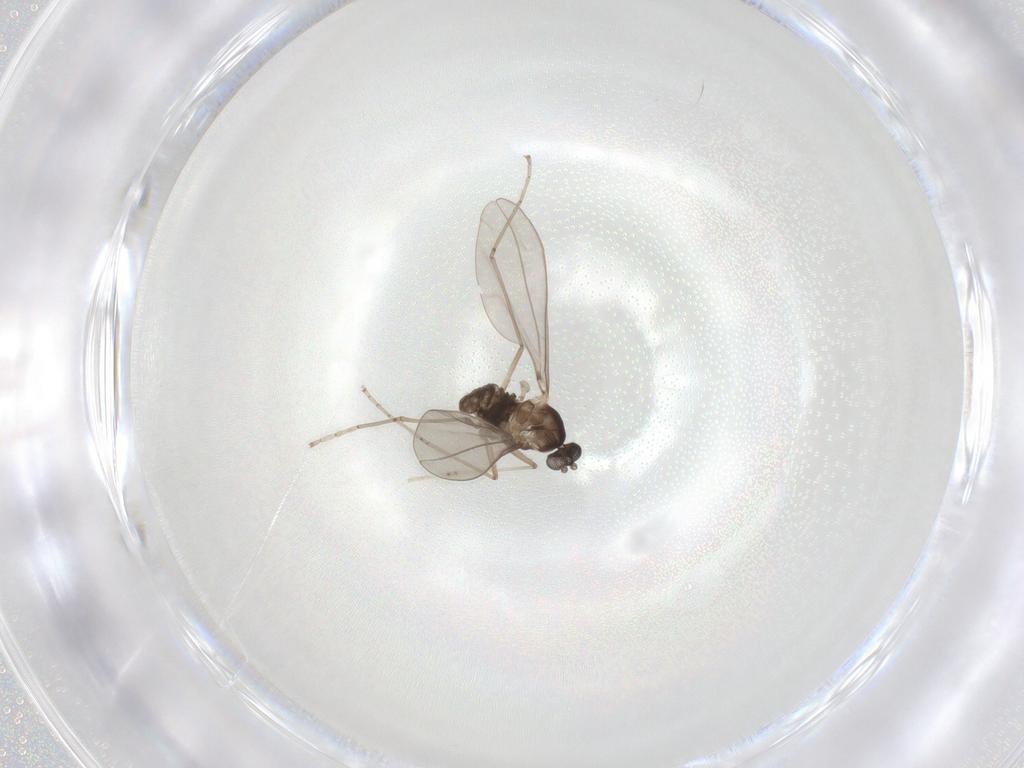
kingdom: Animalia
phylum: Arthropoda
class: Insecta
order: Diptera
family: Cecidomyiidae
